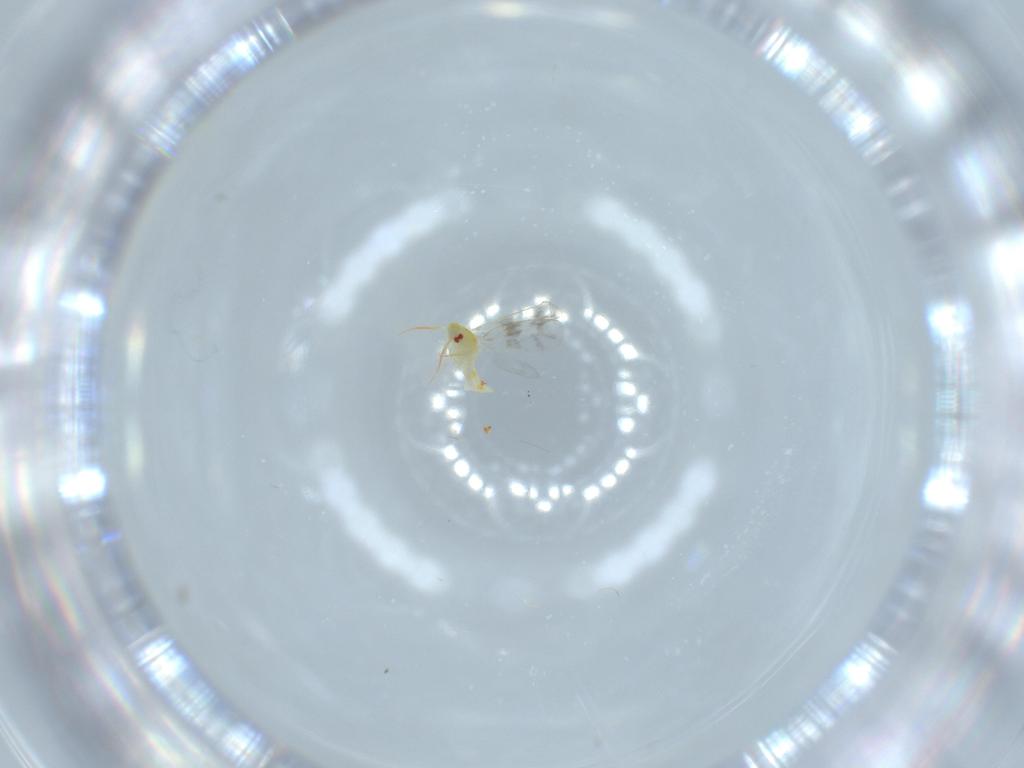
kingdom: Animalia
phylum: Arthropoda
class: Insecta
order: Hemiptera
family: Aleyrodidae
